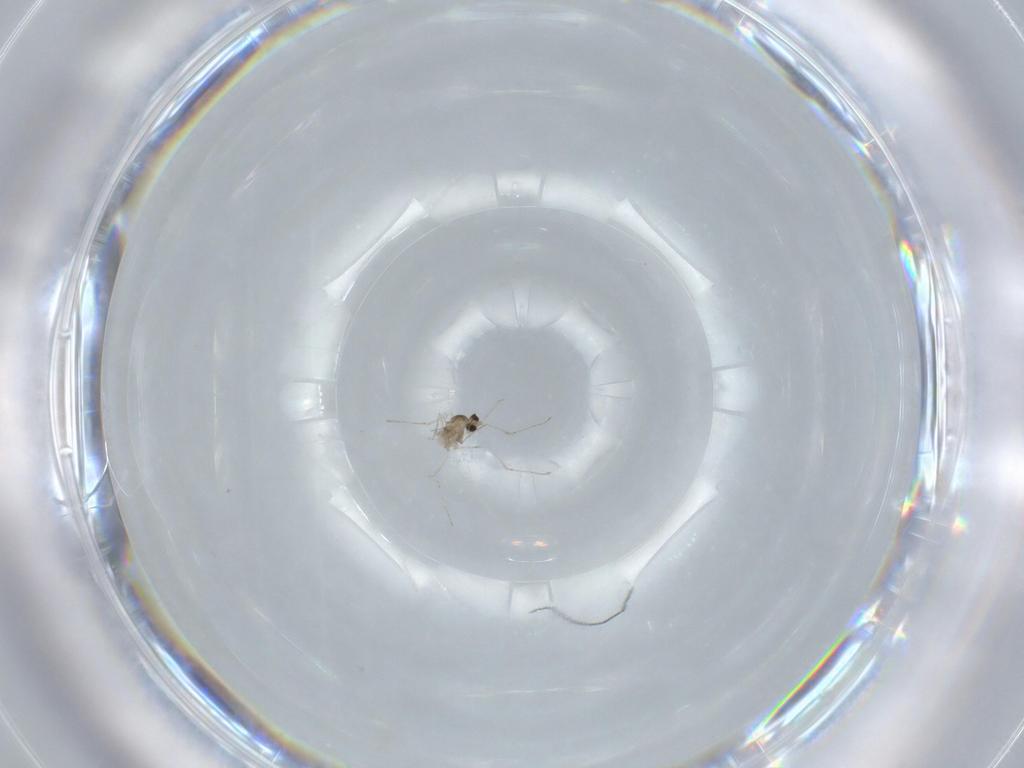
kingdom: Animalia
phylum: Arthropoda
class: Insecta
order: Diptera
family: Cecidomyiidae
